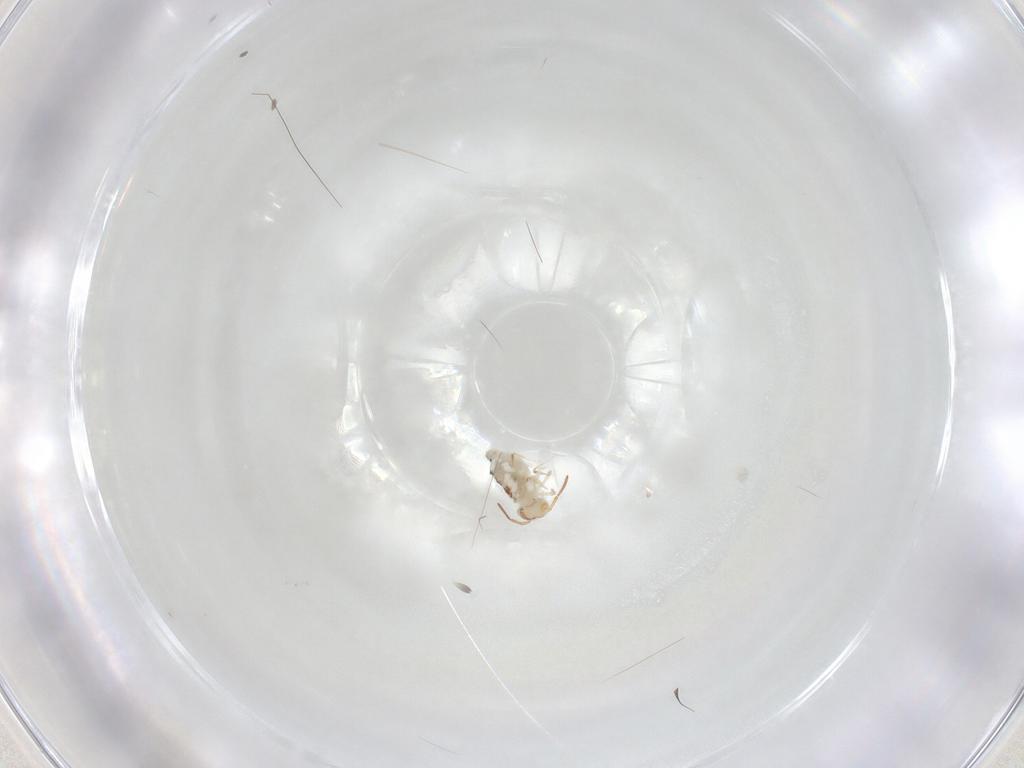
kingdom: Animalia
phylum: Arthropoda
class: Collembola
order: Symphypleona
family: Bourletiellidae
